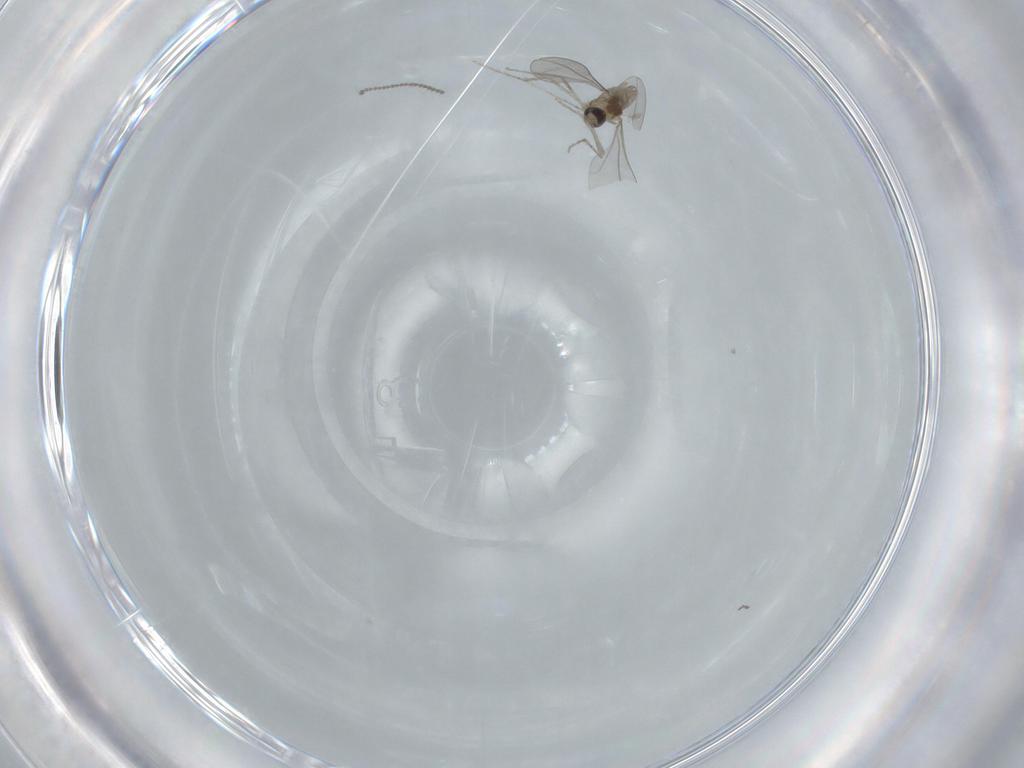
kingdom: Animalia
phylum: Arthropoda
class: Insecta
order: Diptera
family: Cecidomyiidae
